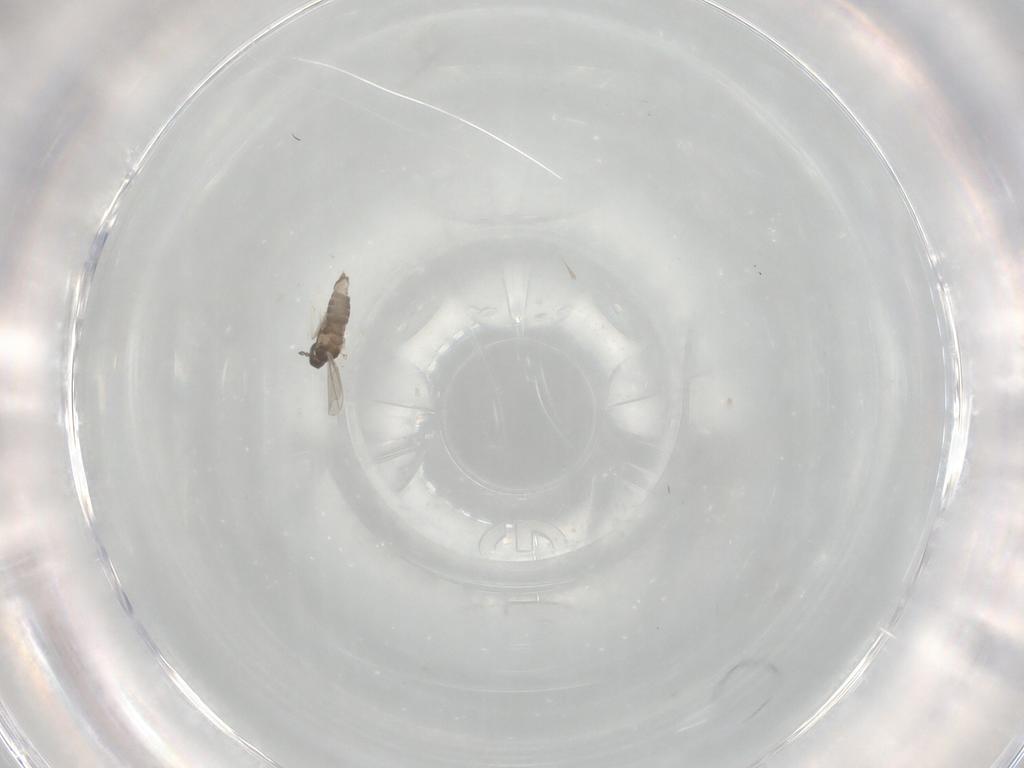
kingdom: Animalia
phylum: Arthropoda
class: Insecta
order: Diptera
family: Cecidomyiidae
